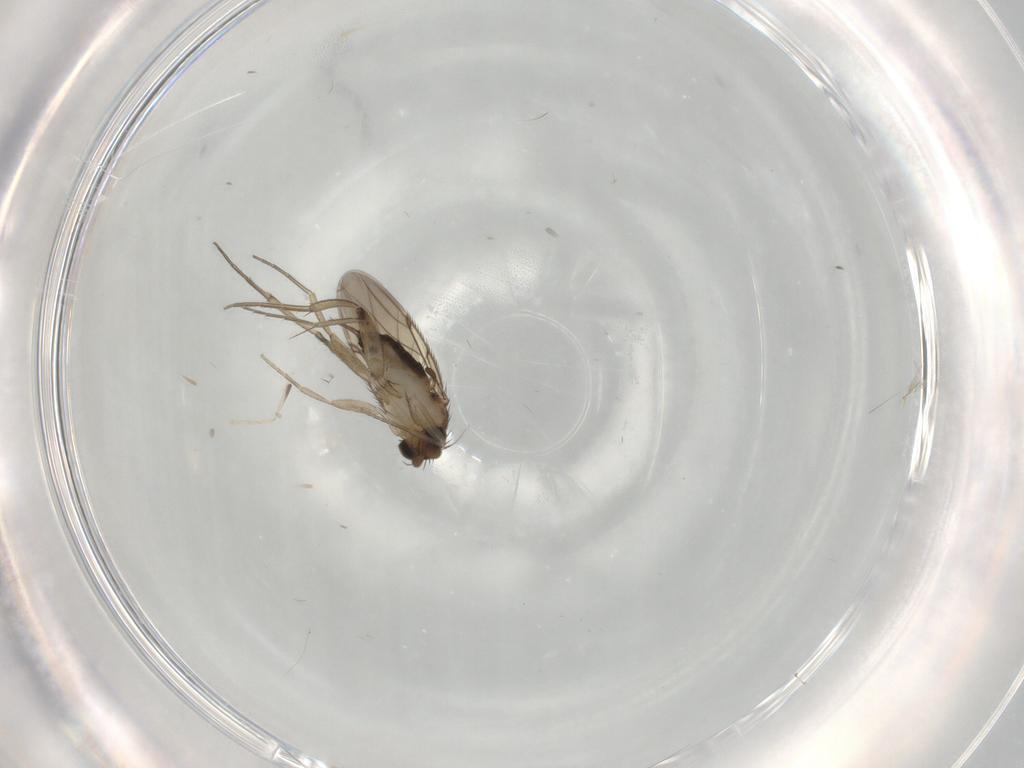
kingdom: Animalia
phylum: Arthropoda
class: Insecta
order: Diptera
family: Phoridae
